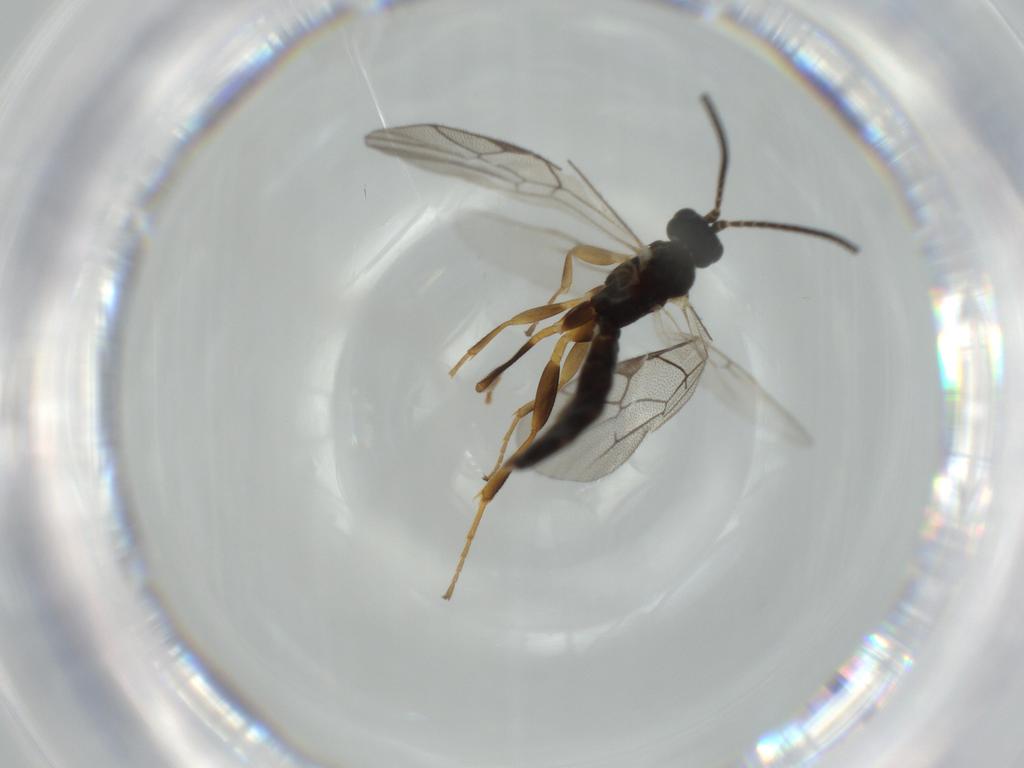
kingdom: Animalia
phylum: Arthropoda
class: Insecta
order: Hymenoptera
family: Ichneumonidae
